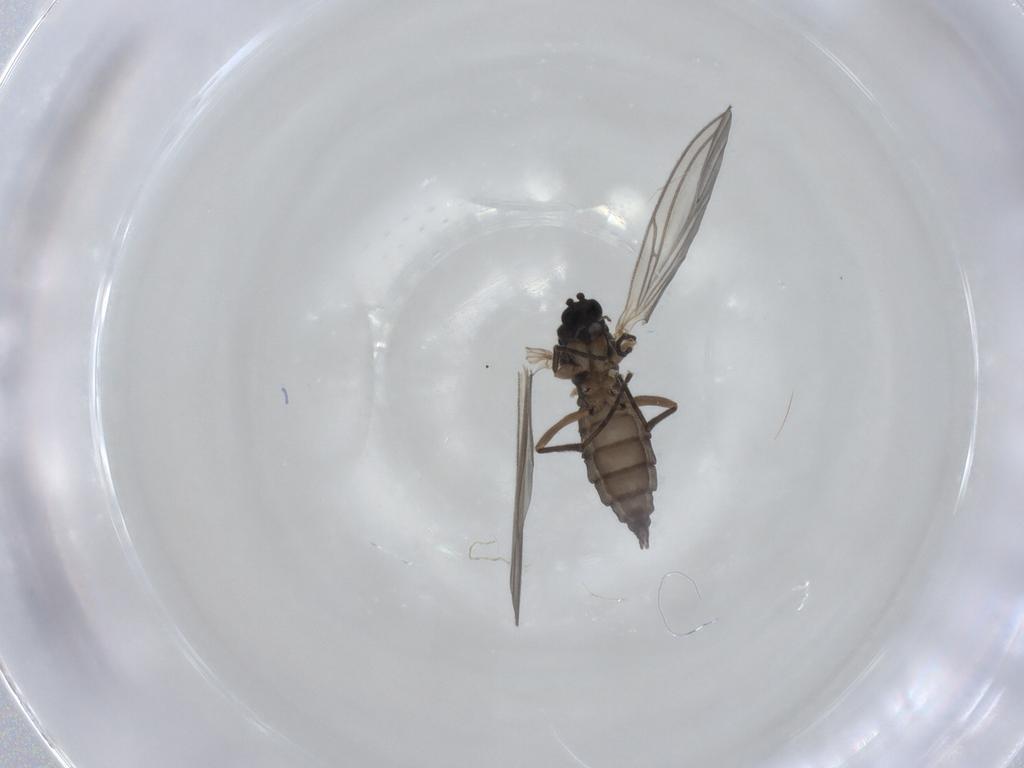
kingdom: Animalia
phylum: Arthropoda
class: Insecta
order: Diptera
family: Sciaridae
